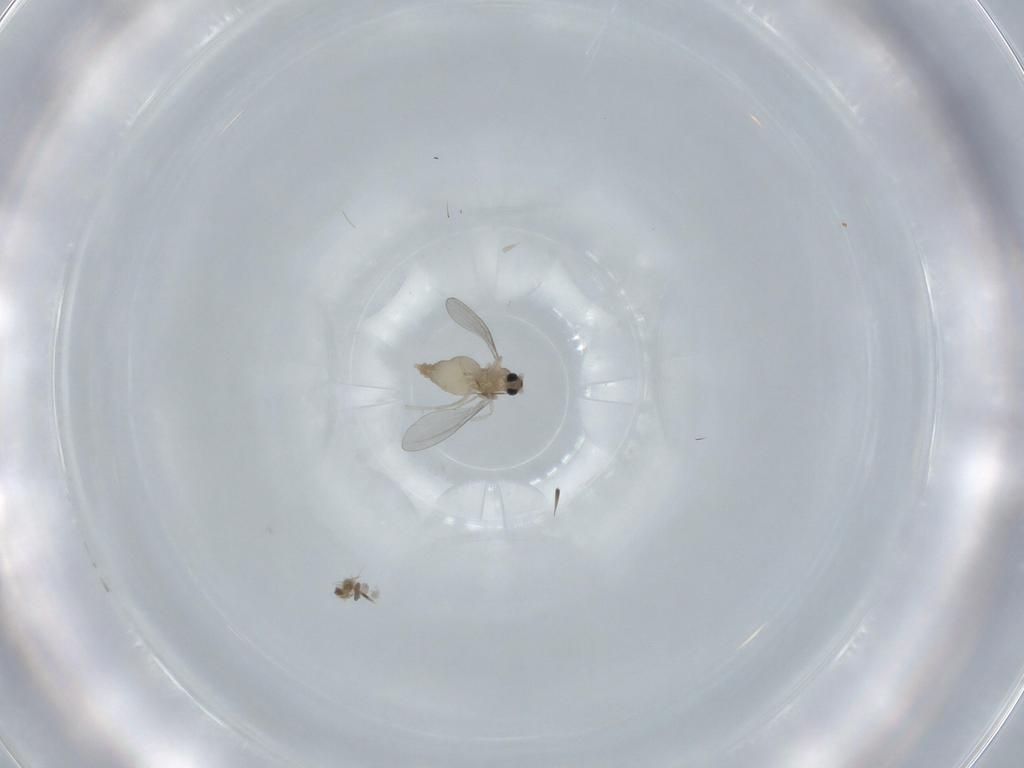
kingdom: Animalia
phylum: Arthropoda
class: Insecta
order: Diptera
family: Cecidomyiidae
